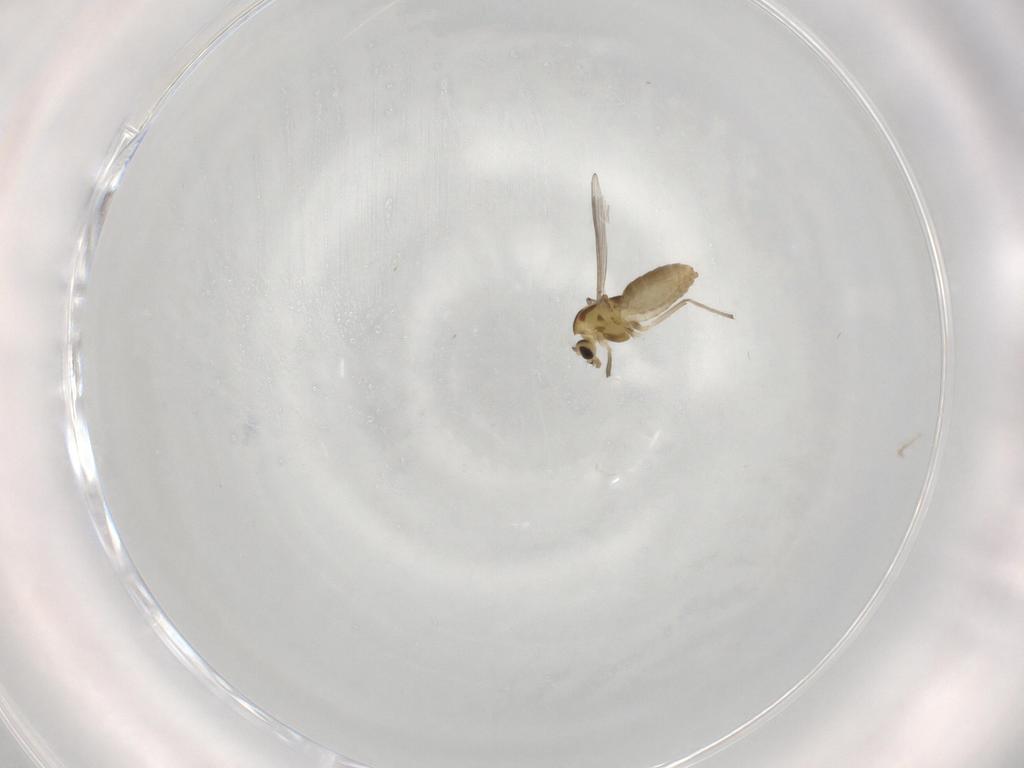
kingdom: Animalia
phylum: Arthropoda
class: Insecta
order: Diptera
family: Chironomidae
